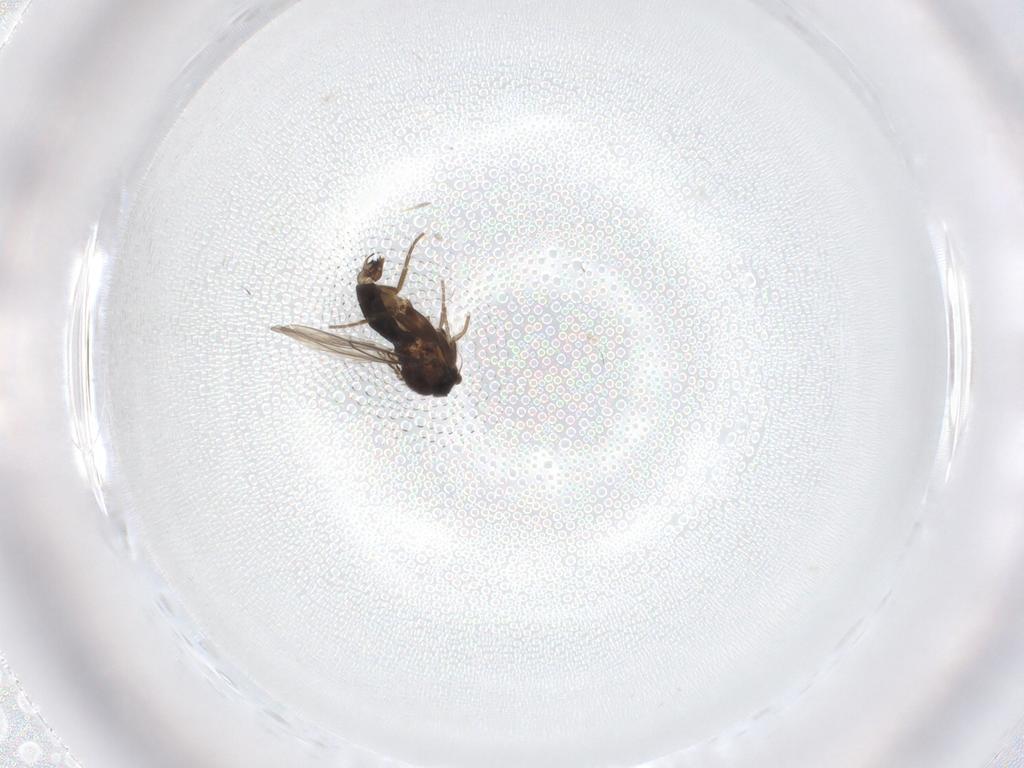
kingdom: Animalia
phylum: Arthropoda
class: Insecta
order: Diptera
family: Phoridae
